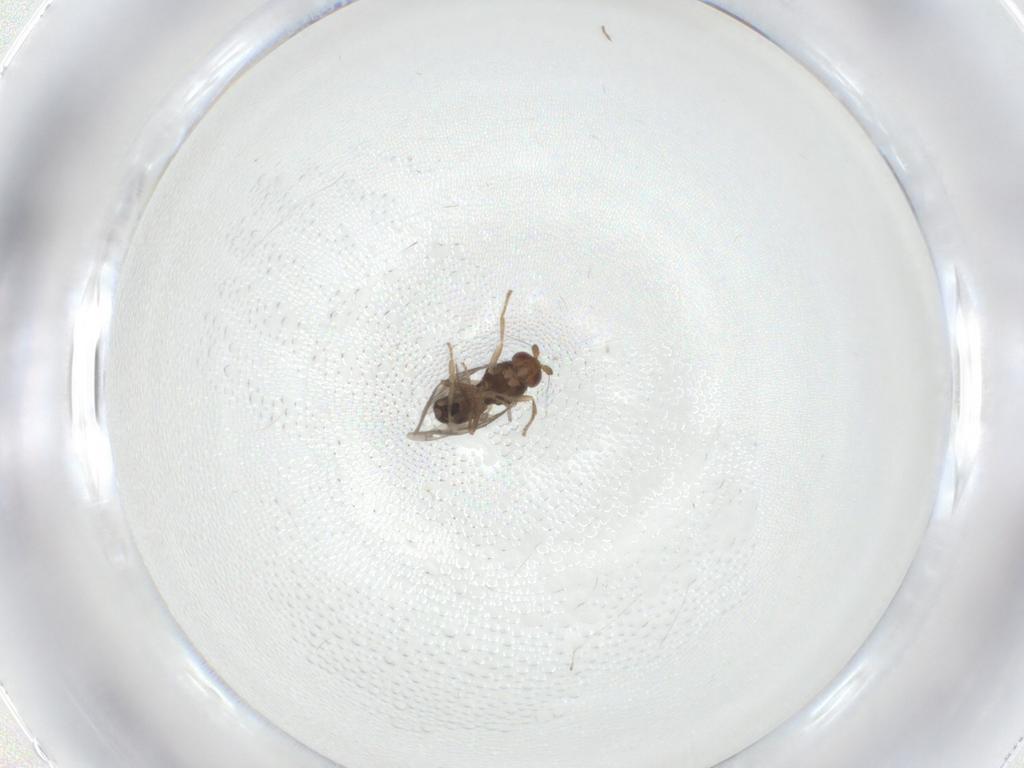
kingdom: Animalia
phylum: Arthropoda
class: Insecta
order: Diptera
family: Sphaeroceridae
